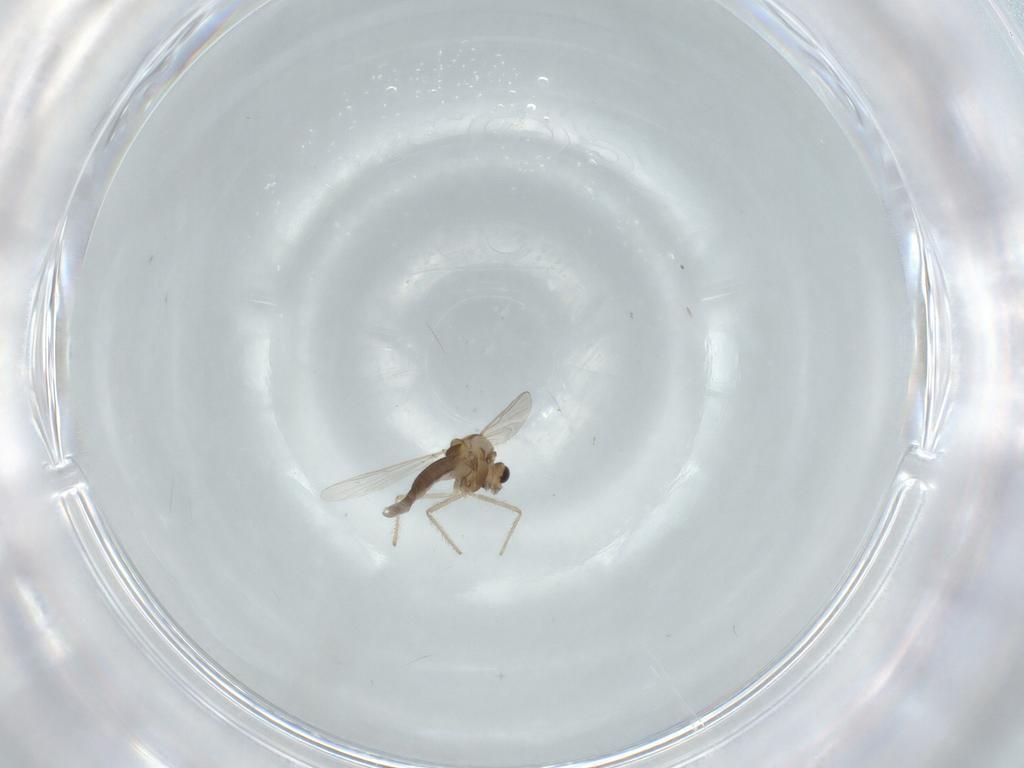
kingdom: Animalia
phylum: Arthropoda
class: Insecta
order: Diptera
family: Chironomidae
